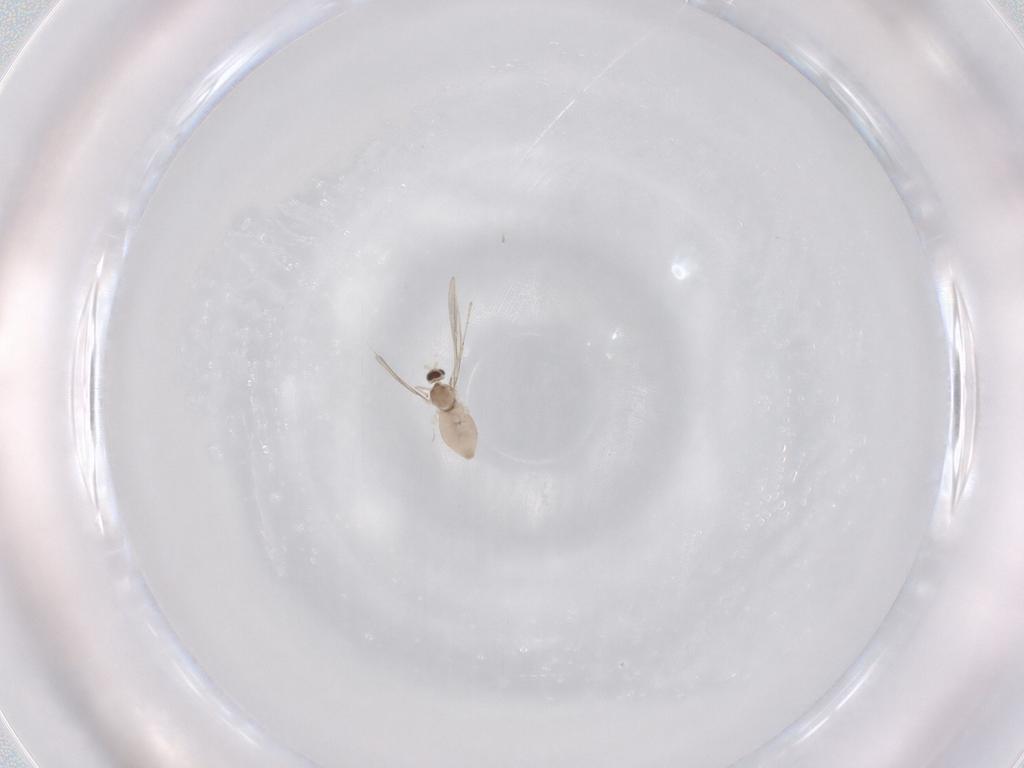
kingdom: Animalia
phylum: Arthropoda
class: Insecta
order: Diptera
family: Cecidomyiidae
